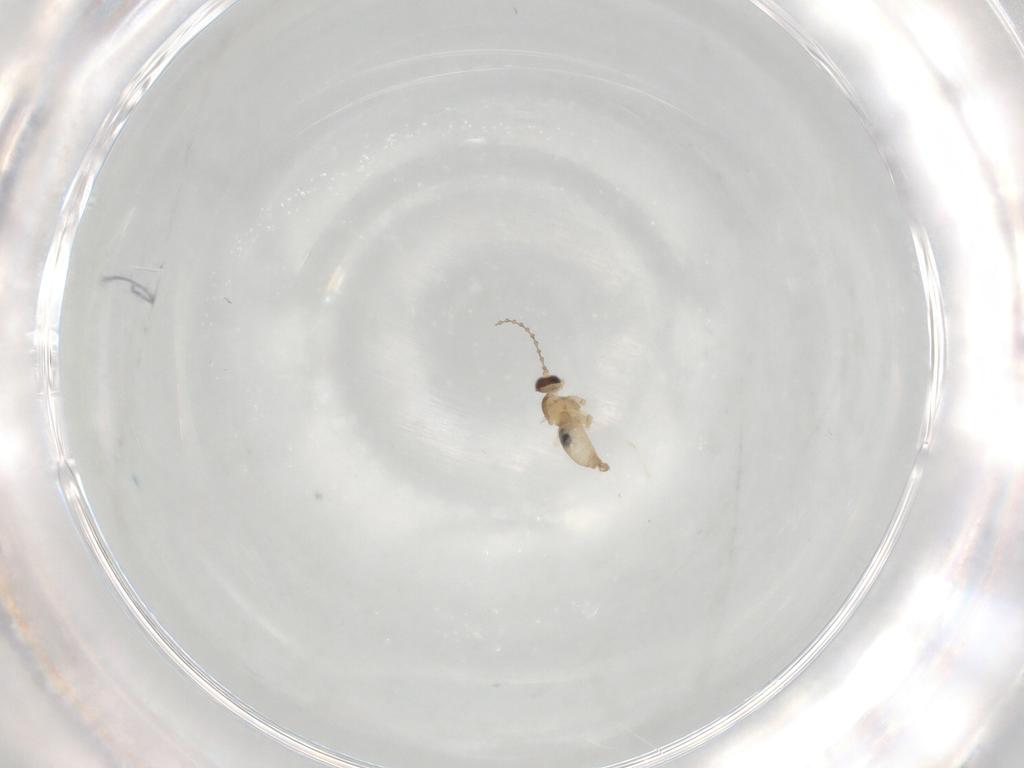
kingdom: Animalia
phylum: Arthropoda
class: Insecta
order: Diptera
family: Cecidomyiidae
